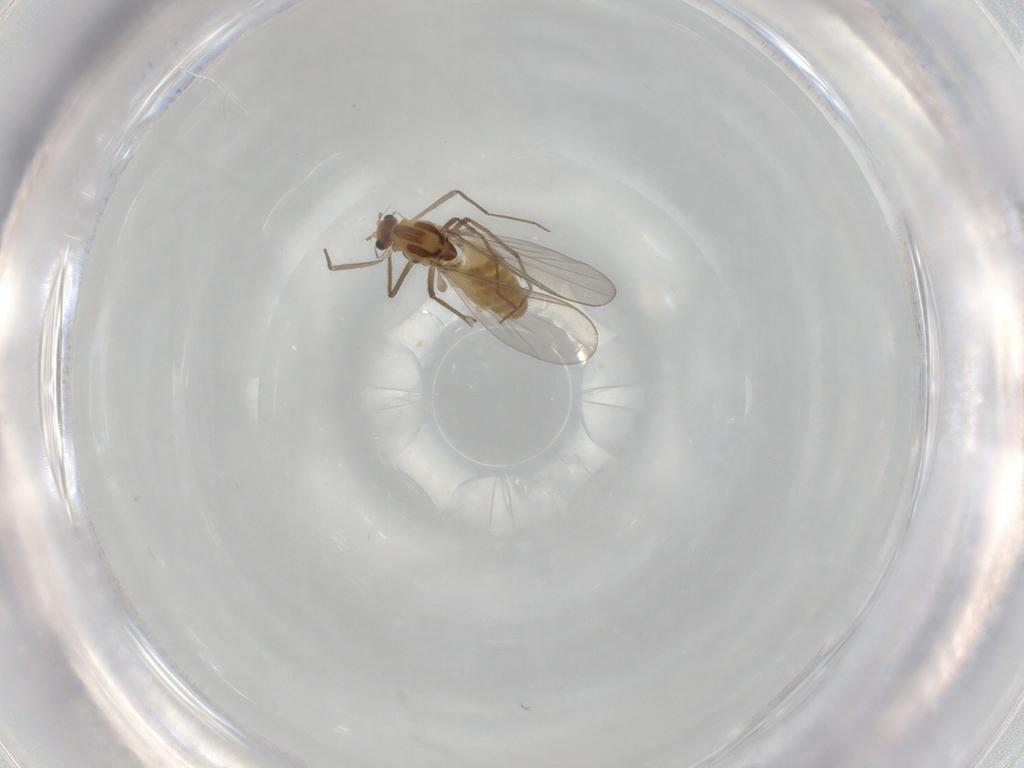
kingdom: Animalia
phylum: Arthropoda
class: Insecta
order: Diptera
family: Chironomidae
